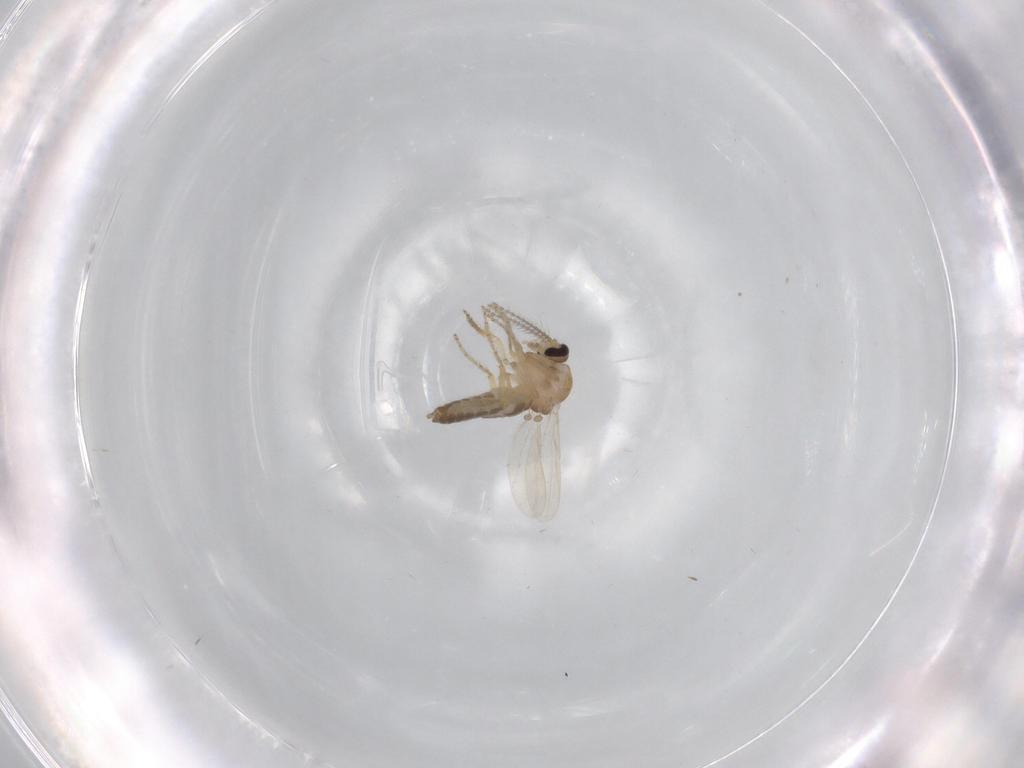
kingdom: Animalia
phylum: Arthropoda
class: Insecta
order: Diptera
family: Ceratopogonidae
